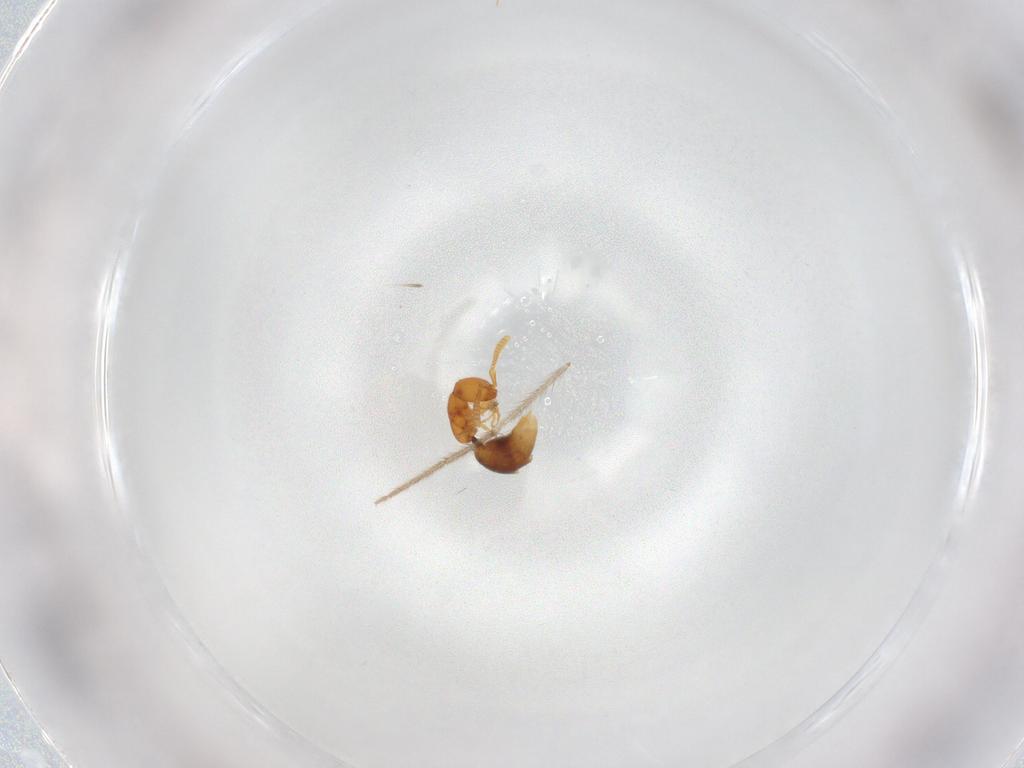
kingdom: Animalia
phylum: Arthropoda
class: Insecta
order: Hymenoptera
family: Bethylidae
